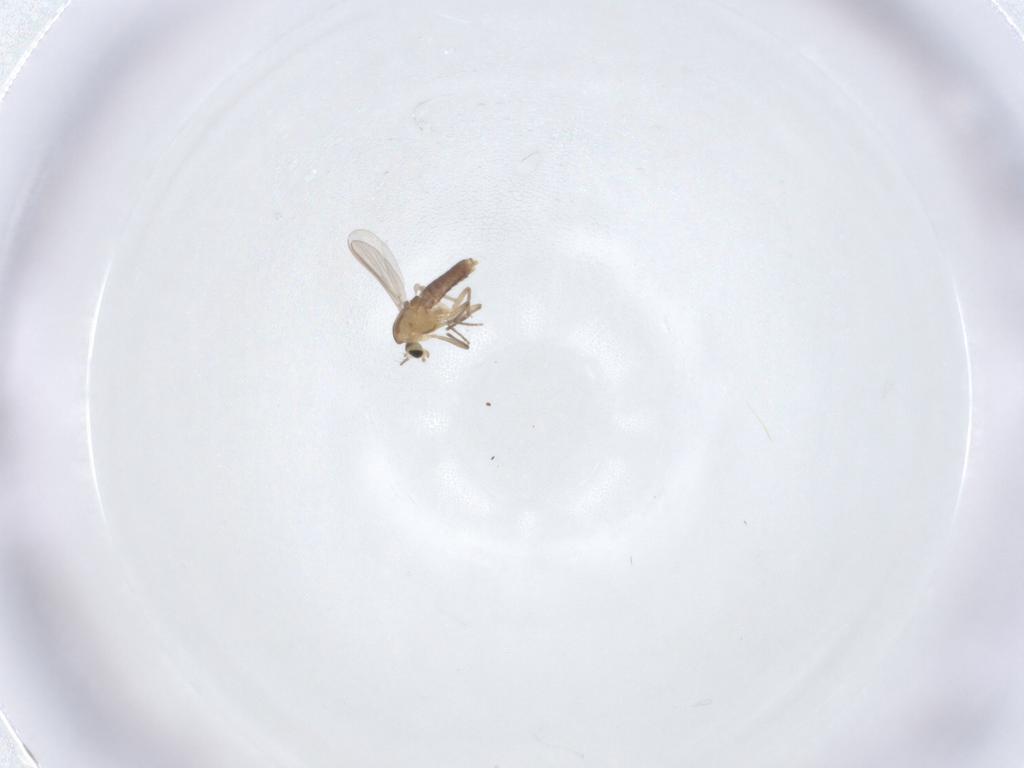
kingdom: Animalia
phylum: Arthropoda
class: Insecta
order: Diptera
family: Chironomidae
